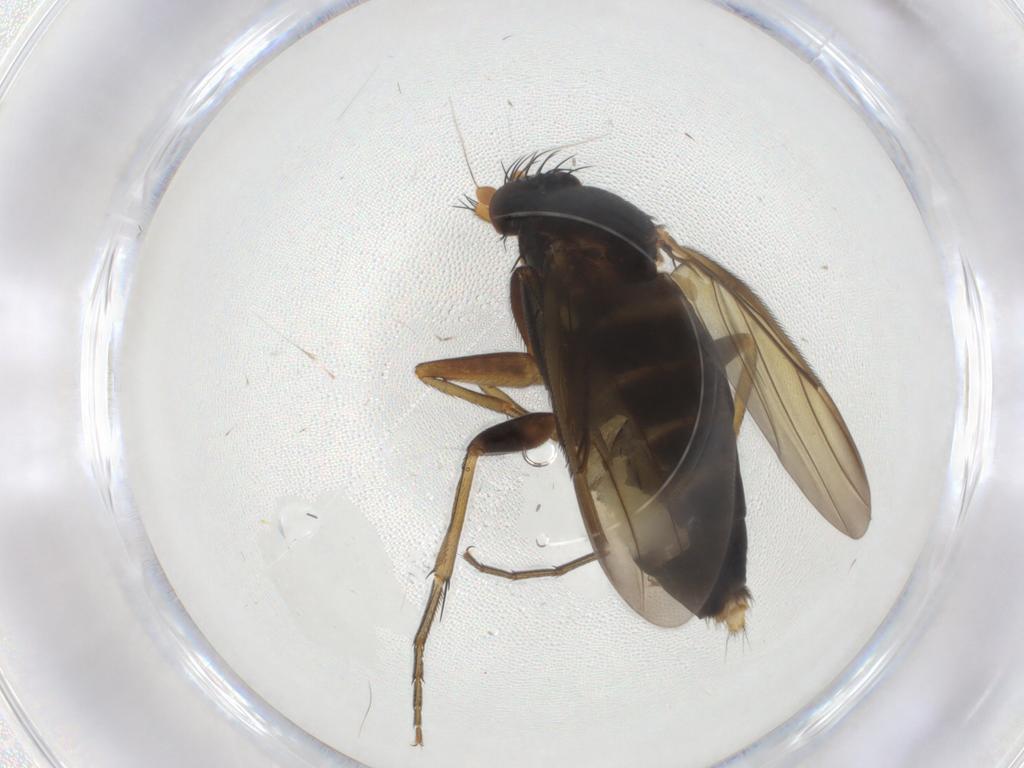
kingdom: Animalia
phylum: Arthropoda
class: Insecta
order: Diptera
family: Phoridae
